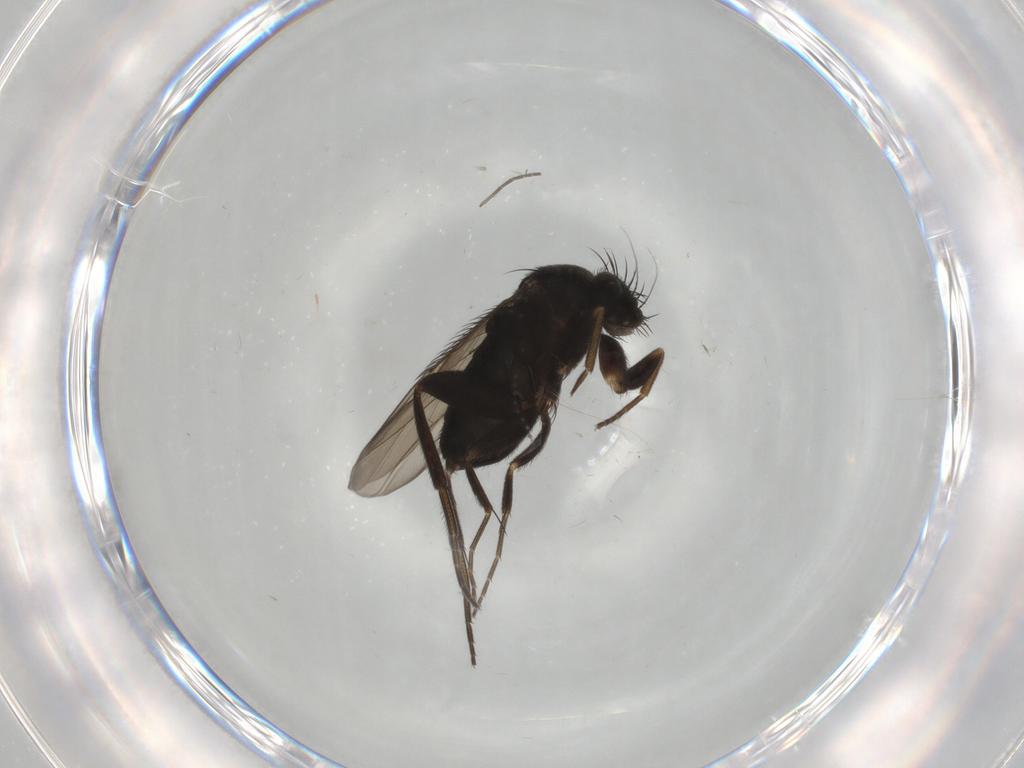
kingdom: Animalia
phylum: Arthropoda
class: Insecta
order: Diptera
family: Phoridae
